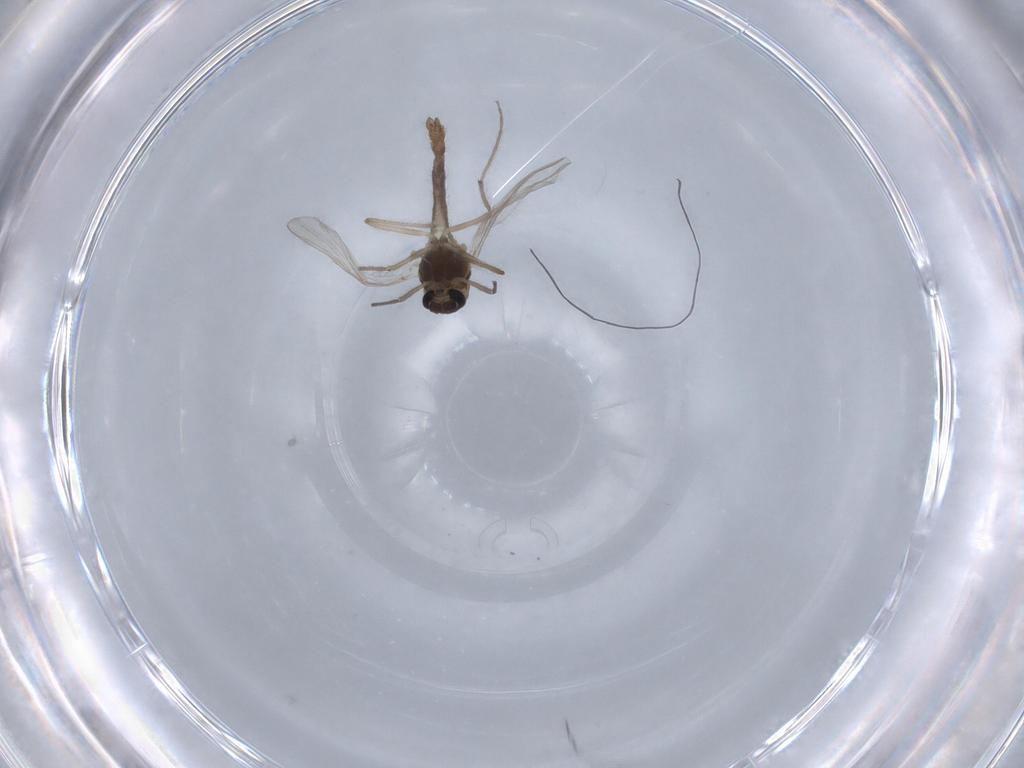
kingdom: Animalia
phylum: Arthropoda
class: Insecta
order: Diptera
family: Chironomidae
